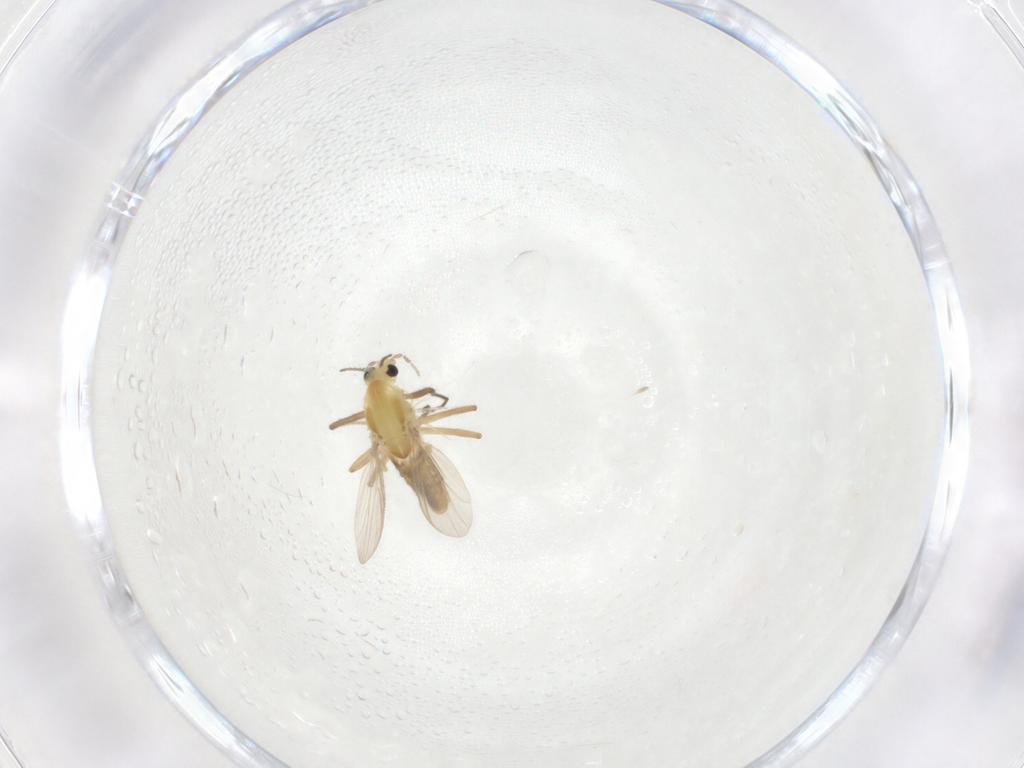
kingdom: Animalia
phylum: Arthropoda
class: Insecta
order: Diptera
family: Chironomidae
